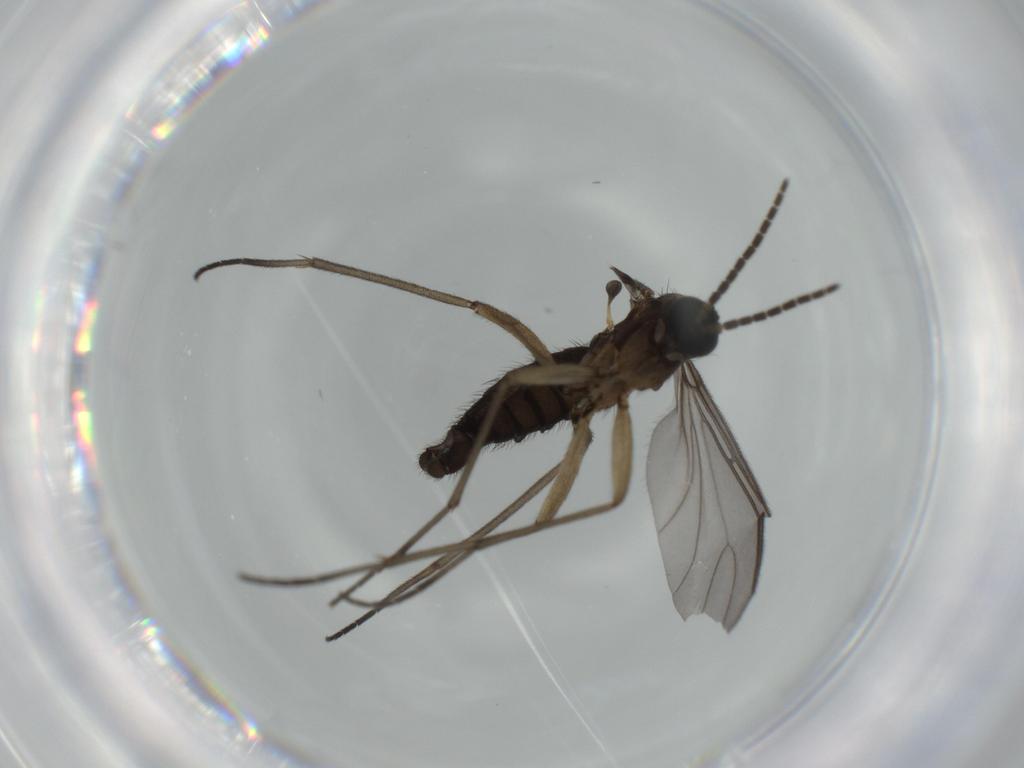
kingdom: Animalia
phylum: Arthropoda
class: Insecta
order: Diptera
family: Sciaridae
